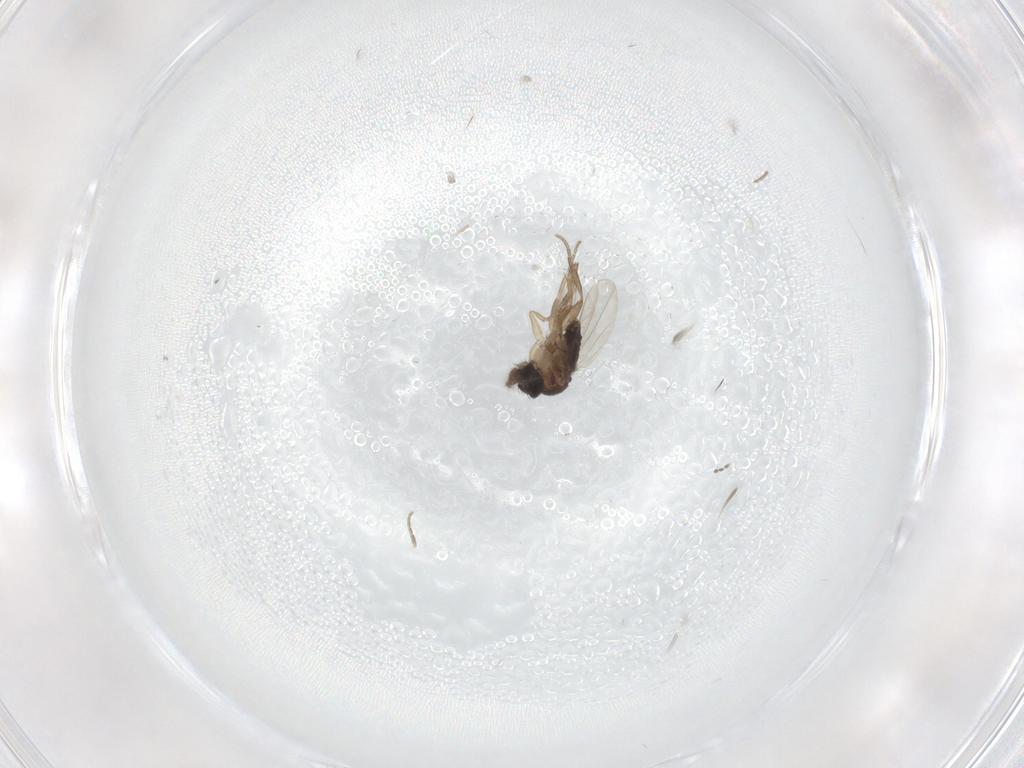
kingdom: Animalia
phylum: Arthropoda
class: Insecta
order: Diptera
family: Phoridae
